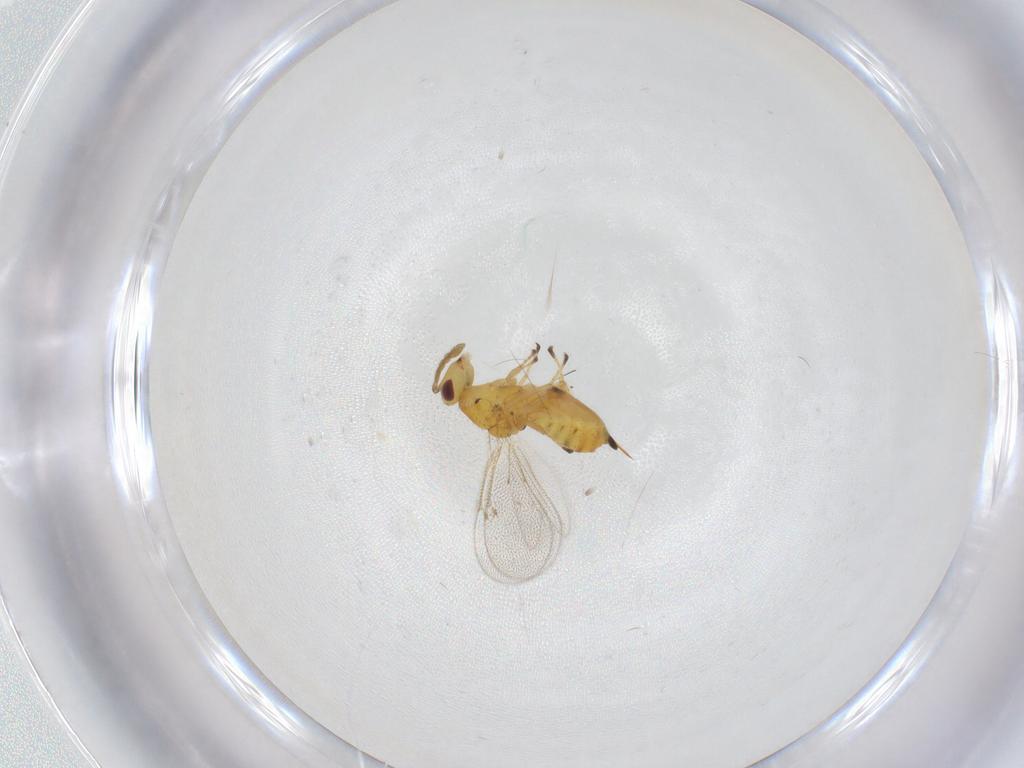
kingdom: Animalia
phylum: Arthropoda
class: Insecta
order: Hymenoptera
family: Eulophidae
